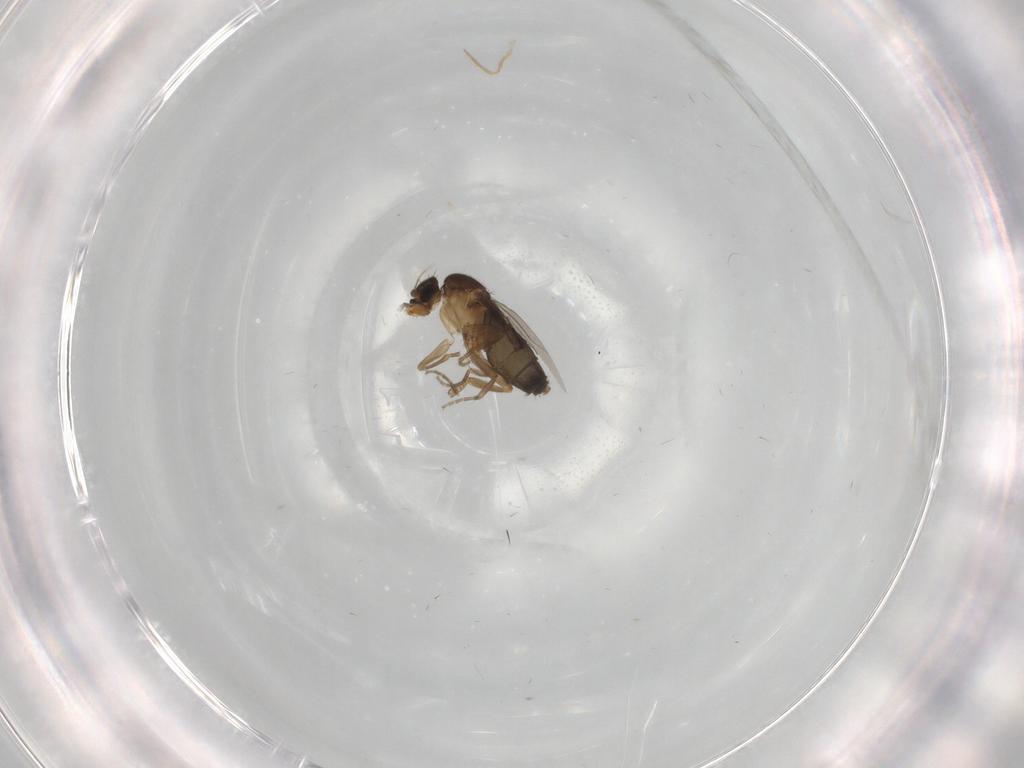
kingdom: Animalia
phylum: Arthropoda
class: Insecta
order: Diptera
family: Phoridae
